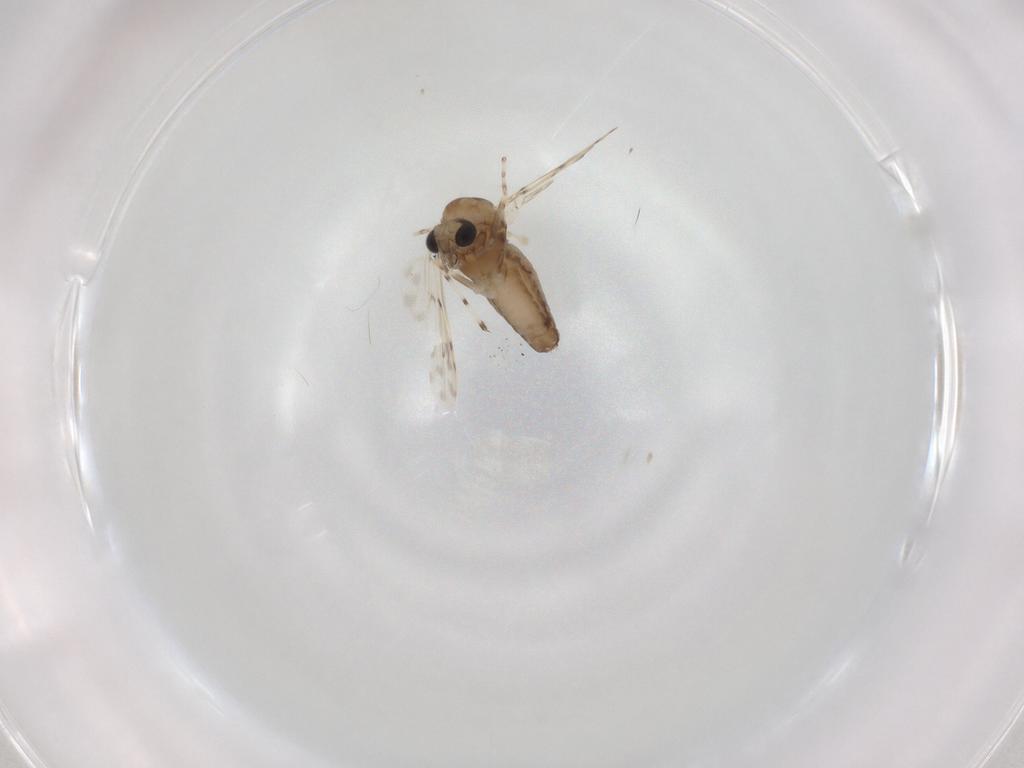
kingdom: Animalia
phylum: Arthropoda
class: Insecta
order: Diptera
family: Chironomidae
